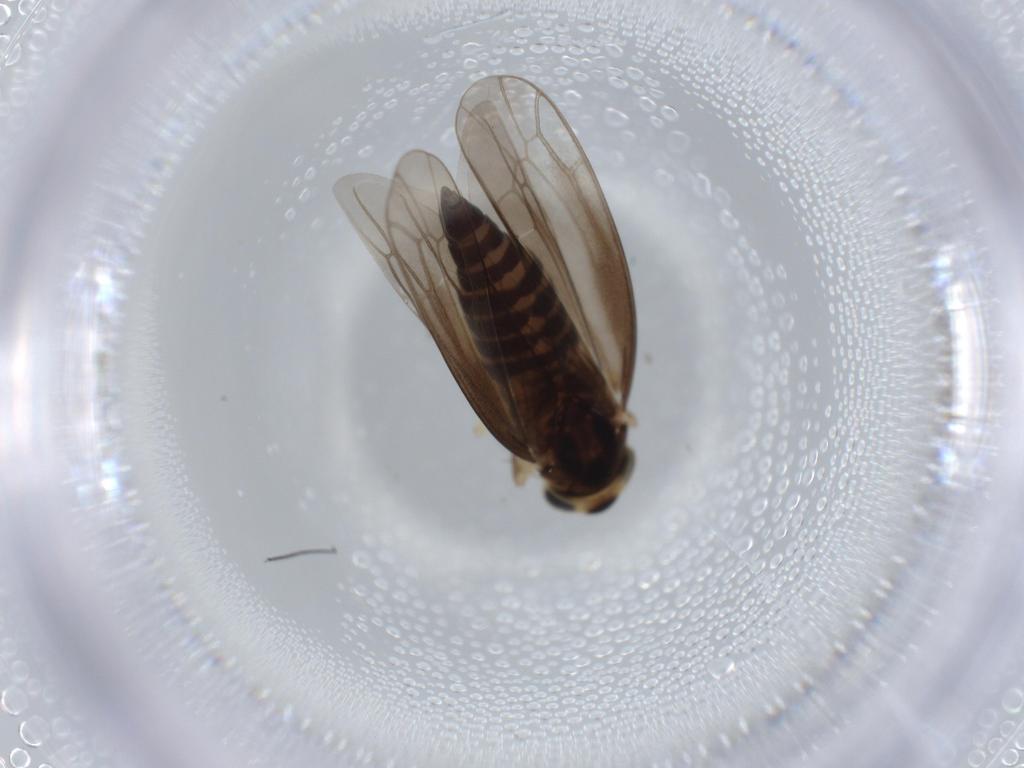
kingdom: Animalia
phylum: Arthropoda
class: Insecta
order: Hemiptera
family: Cicadellidae
